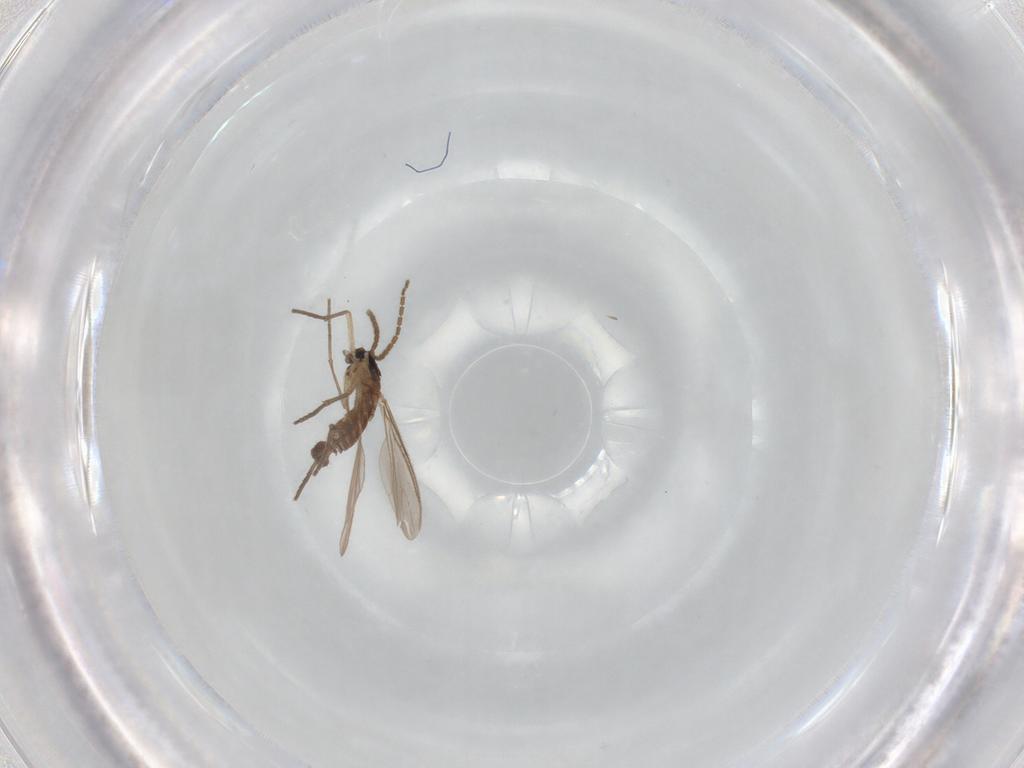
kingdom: Animalia
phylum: Arthropoda
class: Insecta
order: Diptera
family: Sciaridae
